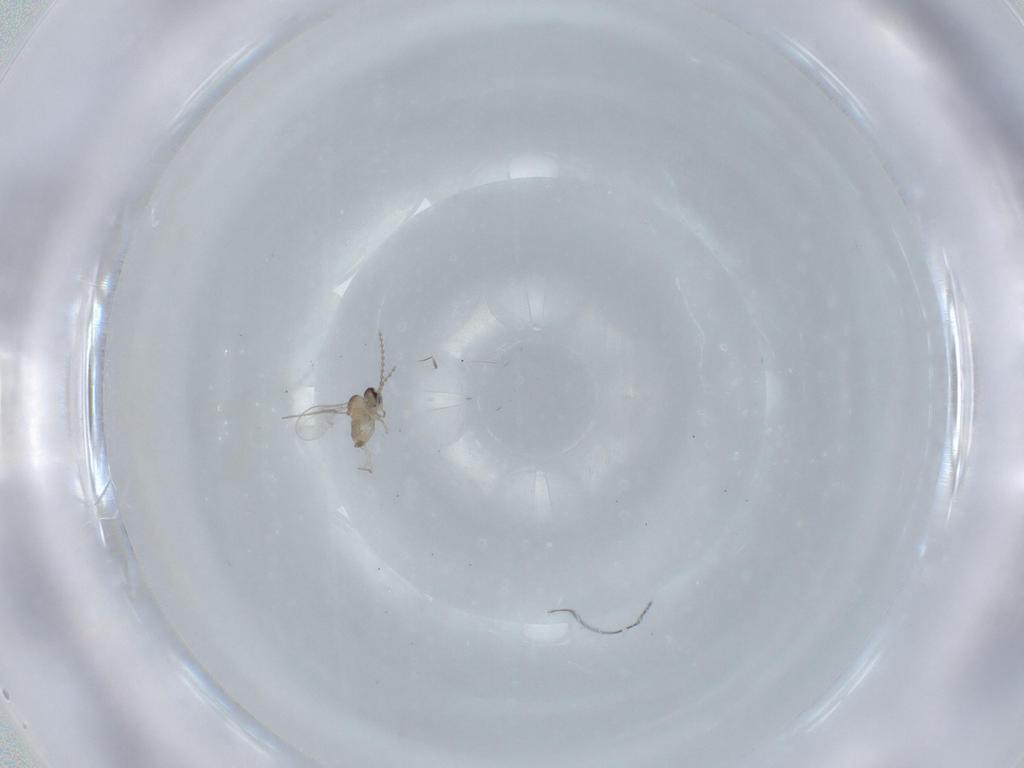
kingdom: Animalia
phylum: Arthropoda
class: Insecta
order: Diptera
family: Cecidomyiidae
